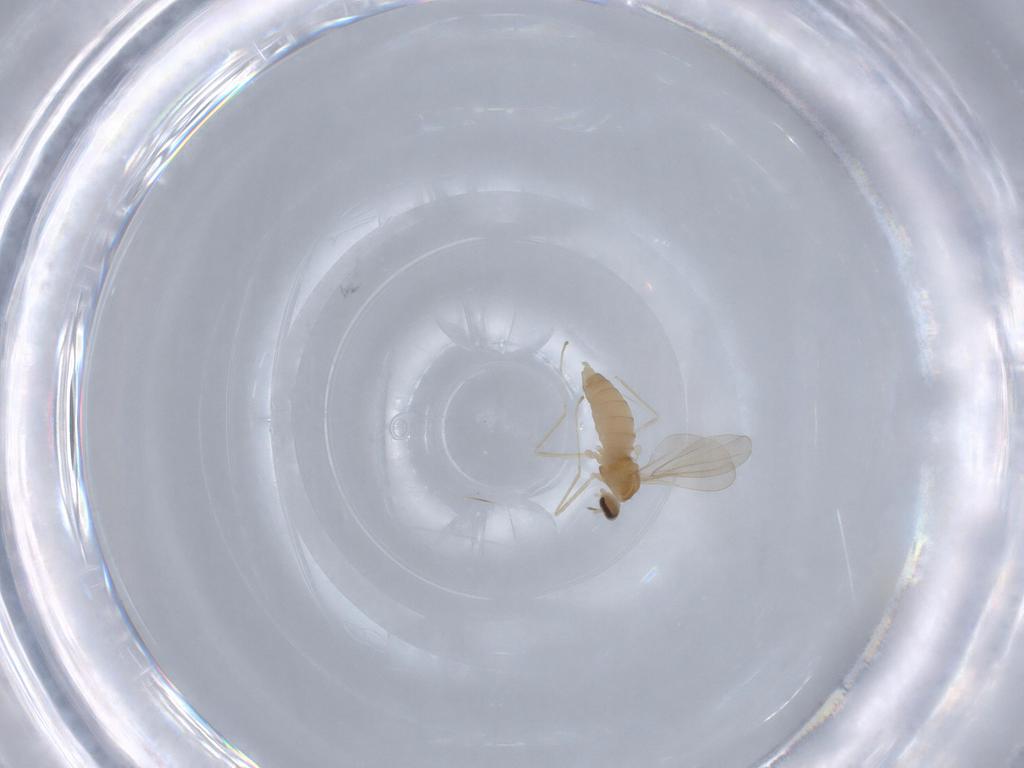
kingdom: Animalia
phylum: Arthropoda
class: Insecta
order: Diptera
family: Cecidomyiidae
